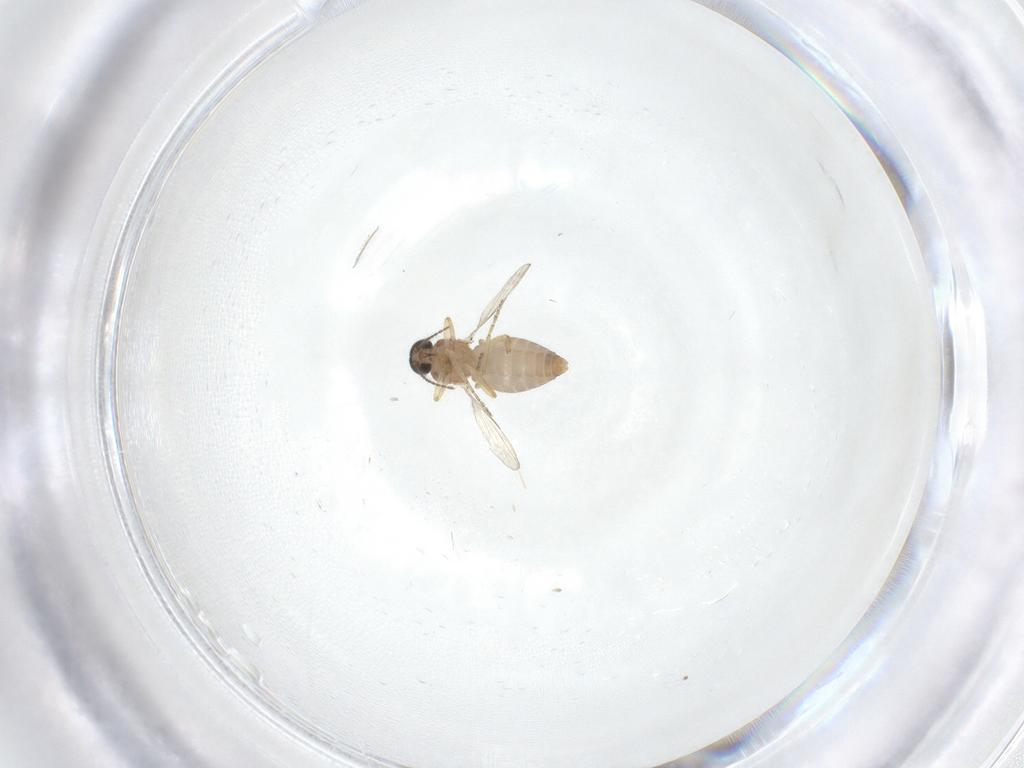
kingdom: Animalia
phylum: Arthropoda
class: Insecta
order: Diptera
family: Ceratopogonidae
